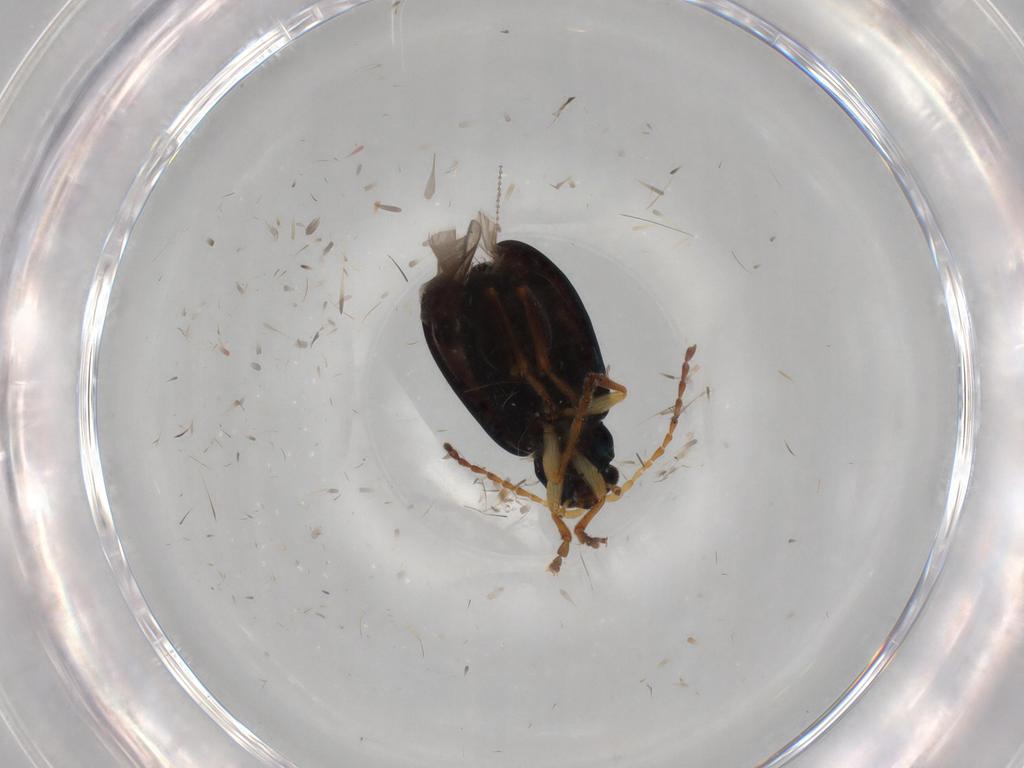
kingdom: Animalia
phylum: Arthropoda
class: Insecta
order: Coleoptera
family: Chrysomelidae
